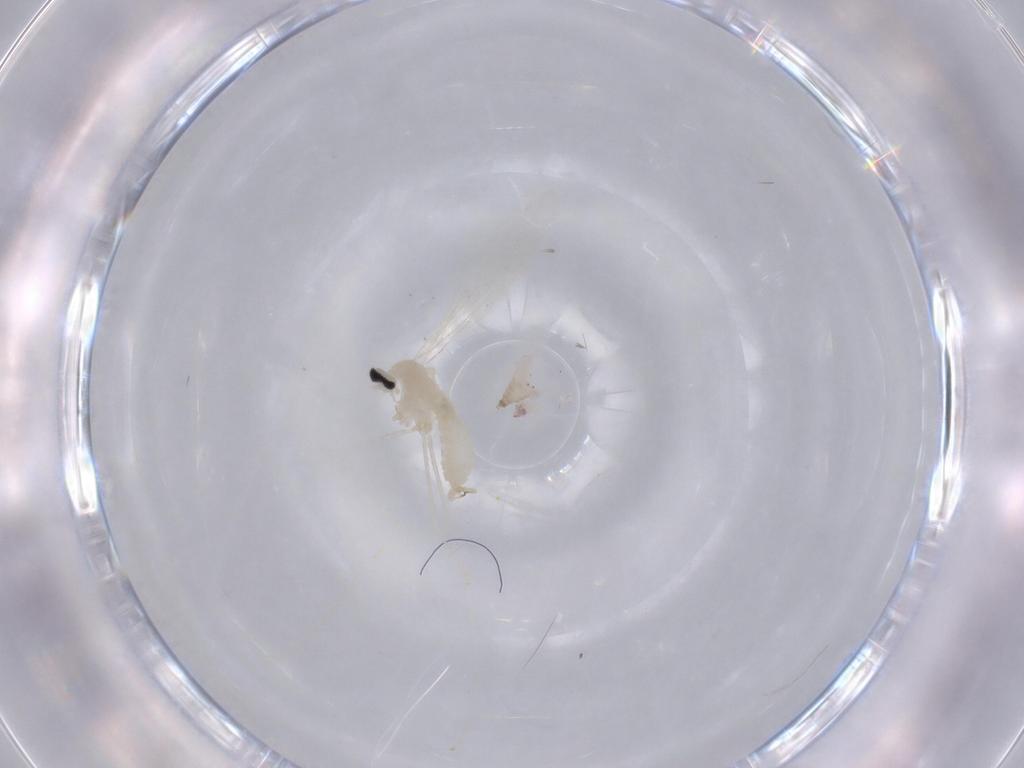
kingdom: Animalia
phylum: Arthropoda
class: Insecta
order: Diptera
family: Cecidomyiidae
